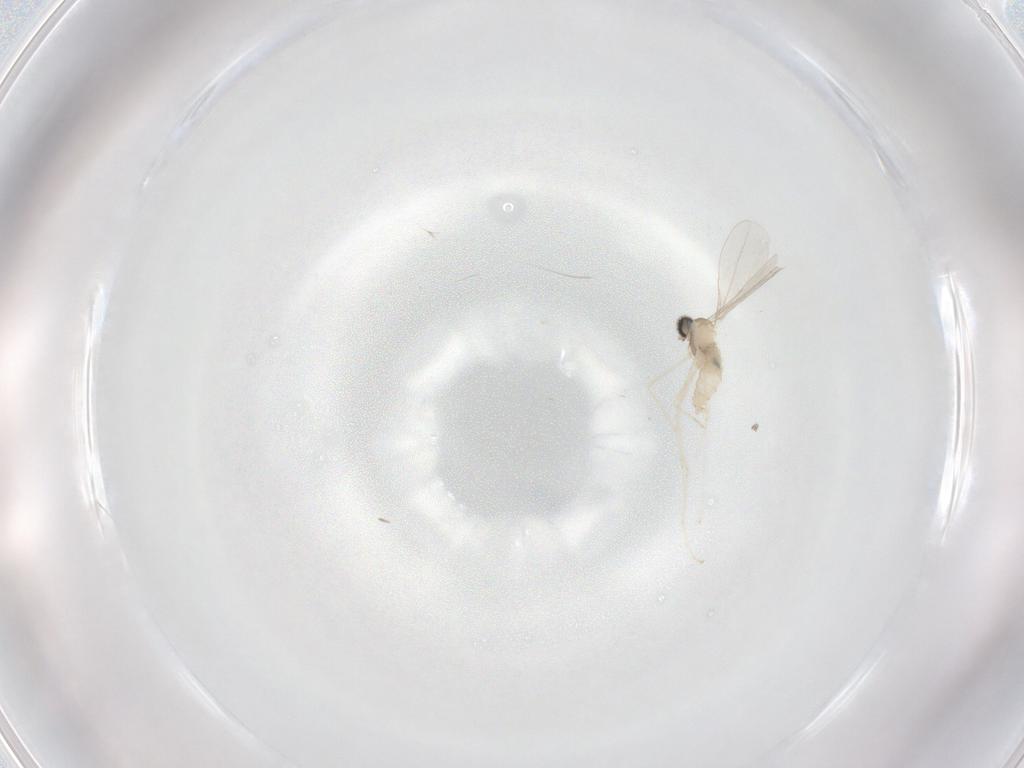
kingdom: Animalia
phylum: Arthropoda
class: Insecta
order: Diptera
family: Cecidomyiidae
